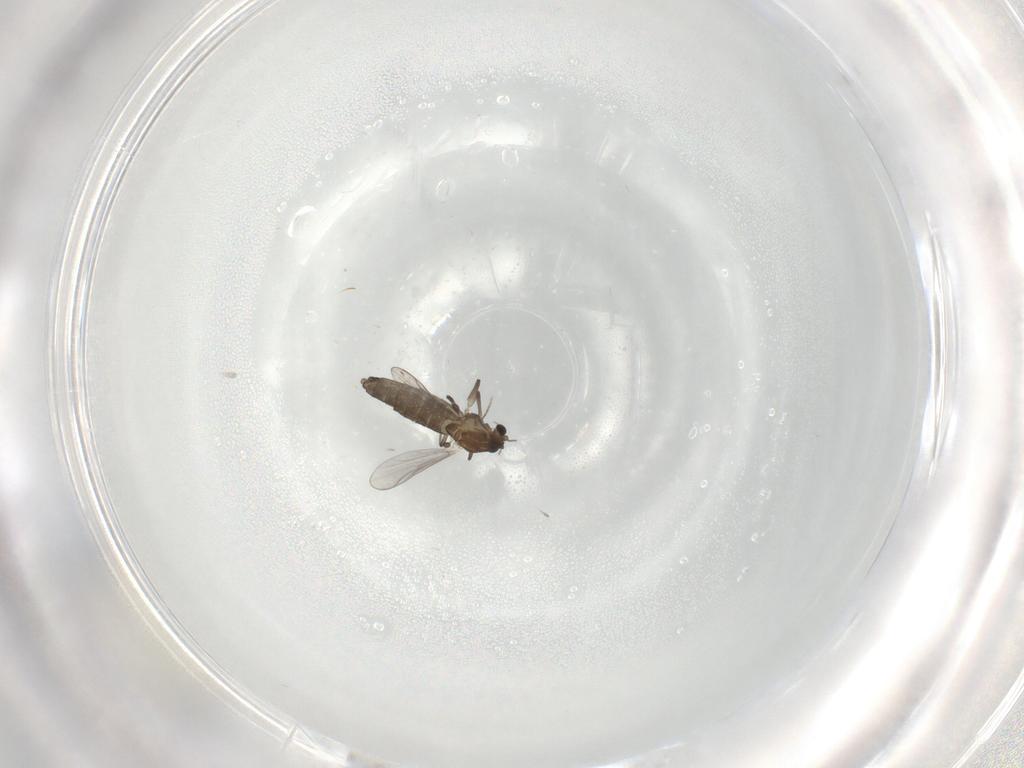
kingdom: Animalia
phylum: Arthropoda
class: Insecta
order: Diptera
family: Chironomidae
